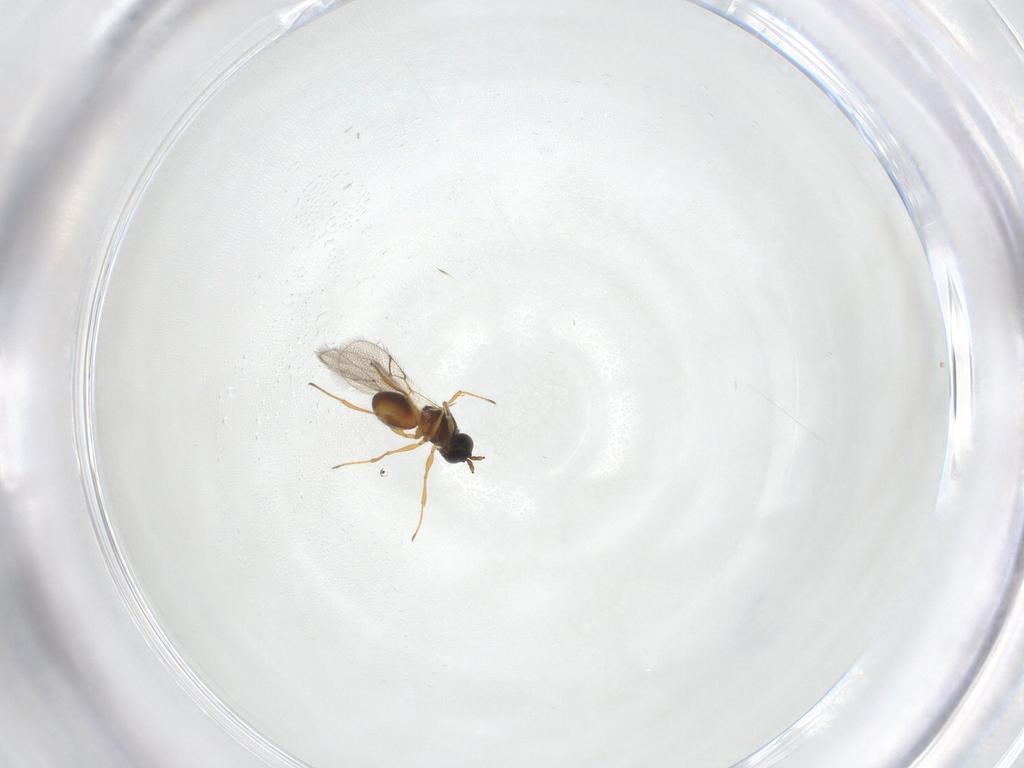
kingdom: Animalia
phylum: Arthropoda
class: Insecta
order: Hymenoptera
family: Figitidae
